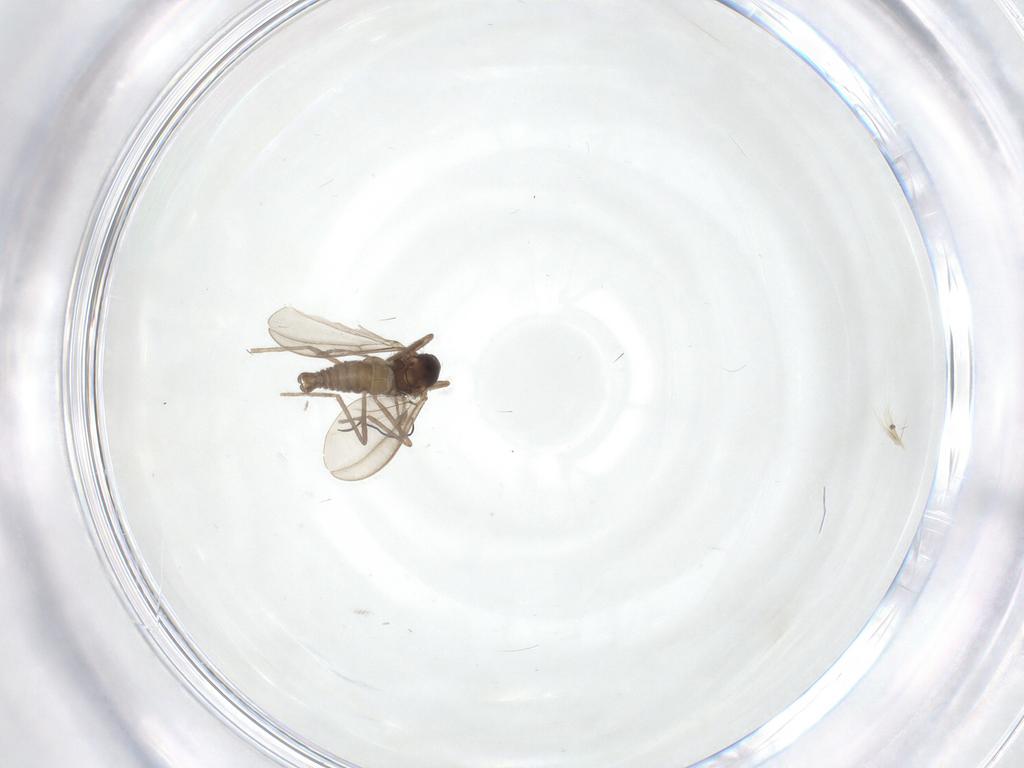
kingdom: Animalia
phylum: Arthropoda
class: Insecta
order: Diptera
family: Cecidomyiidae
